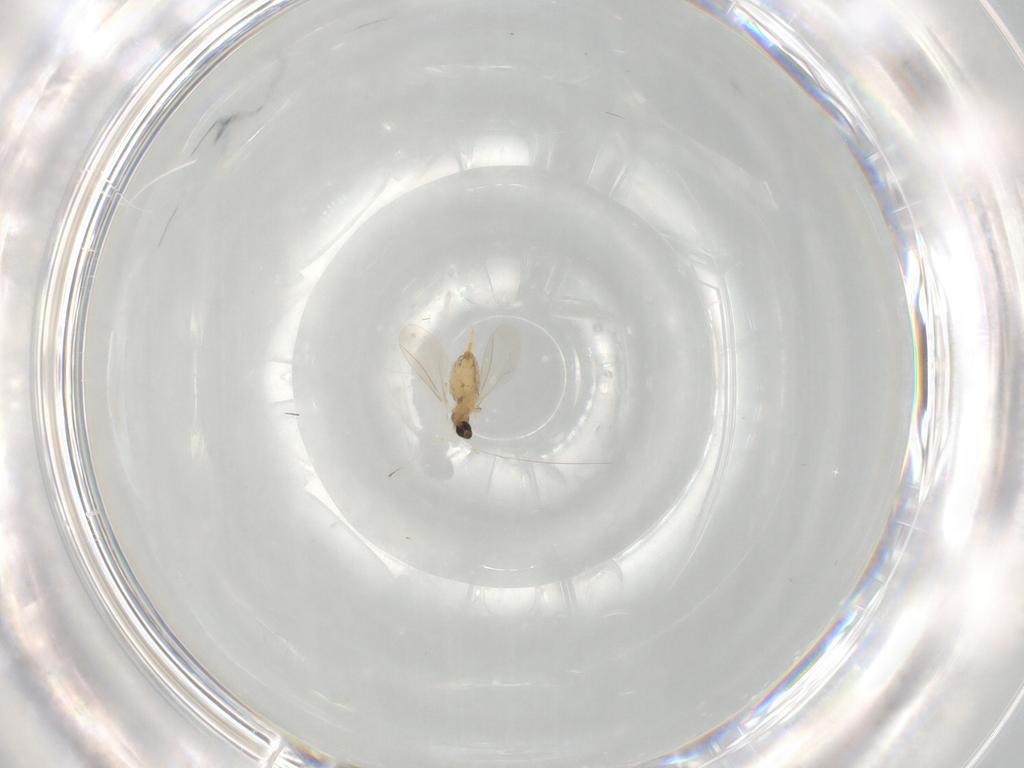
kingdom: Animalia
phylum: Arthropoda
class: Insecta
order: Diptera
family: Cecidomyiidae
